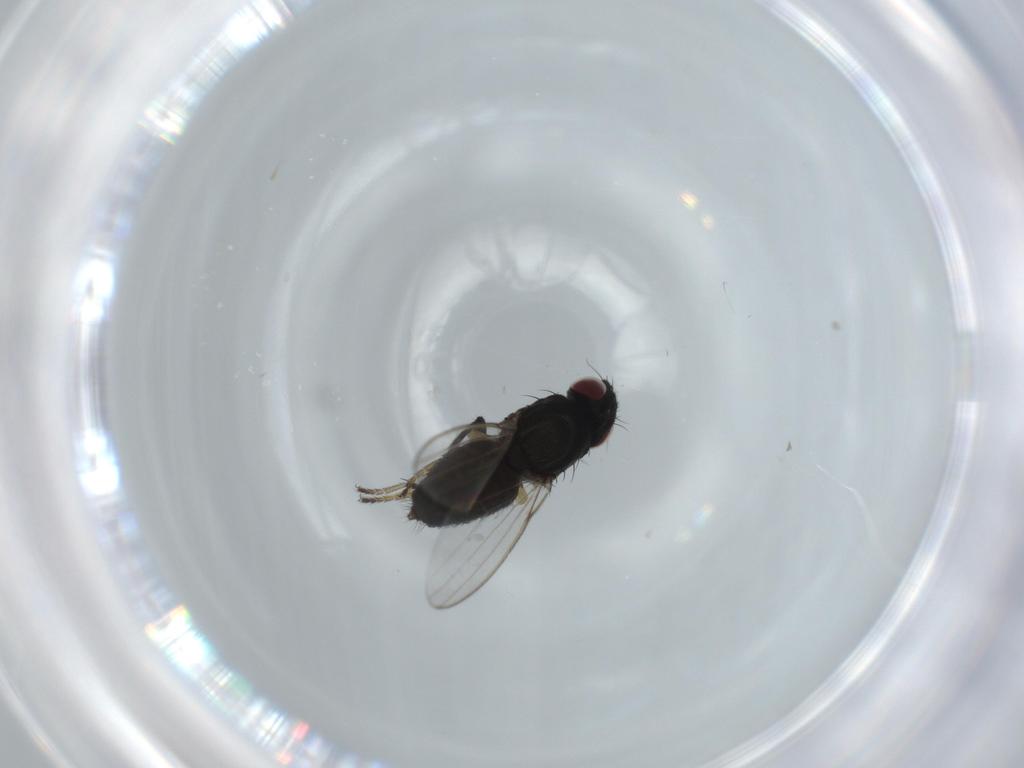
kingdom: Animalia
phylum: Arthropoda
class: Insecta
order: Diptera
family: Milichiidae
